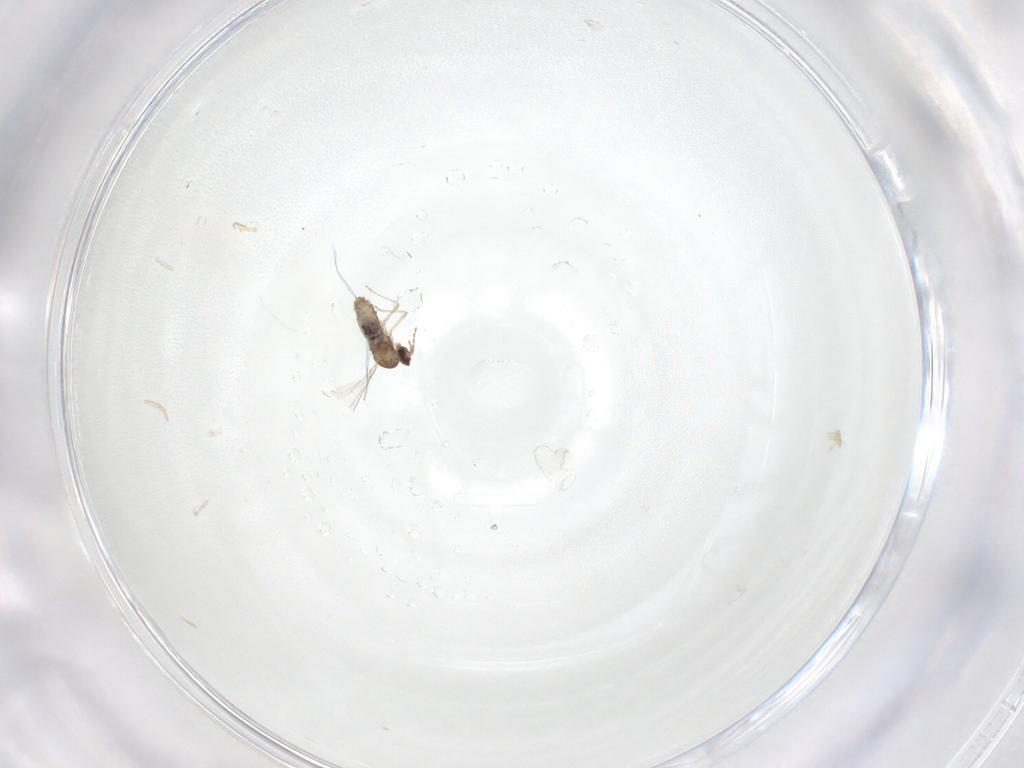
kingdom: Animalia
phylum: Arthropoda
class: Insecta
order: Diptera
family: Cecidomyiidae
